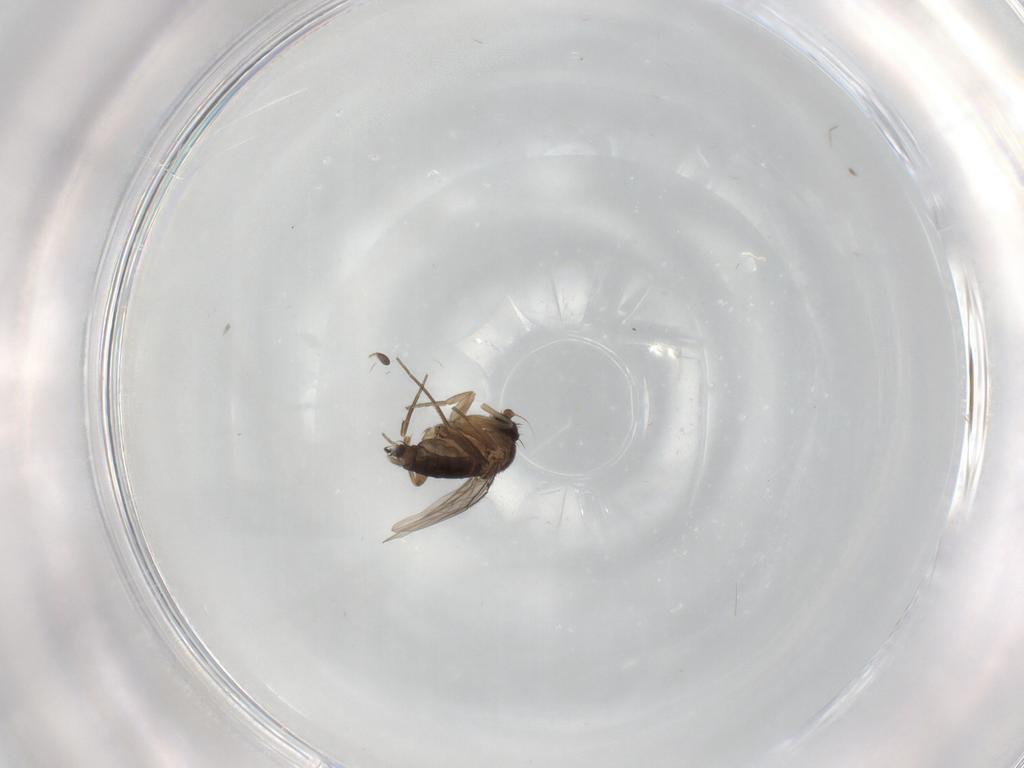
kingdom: Animalia
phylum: Arthropoda
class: Insecta
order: Diptera
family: Phoridae
